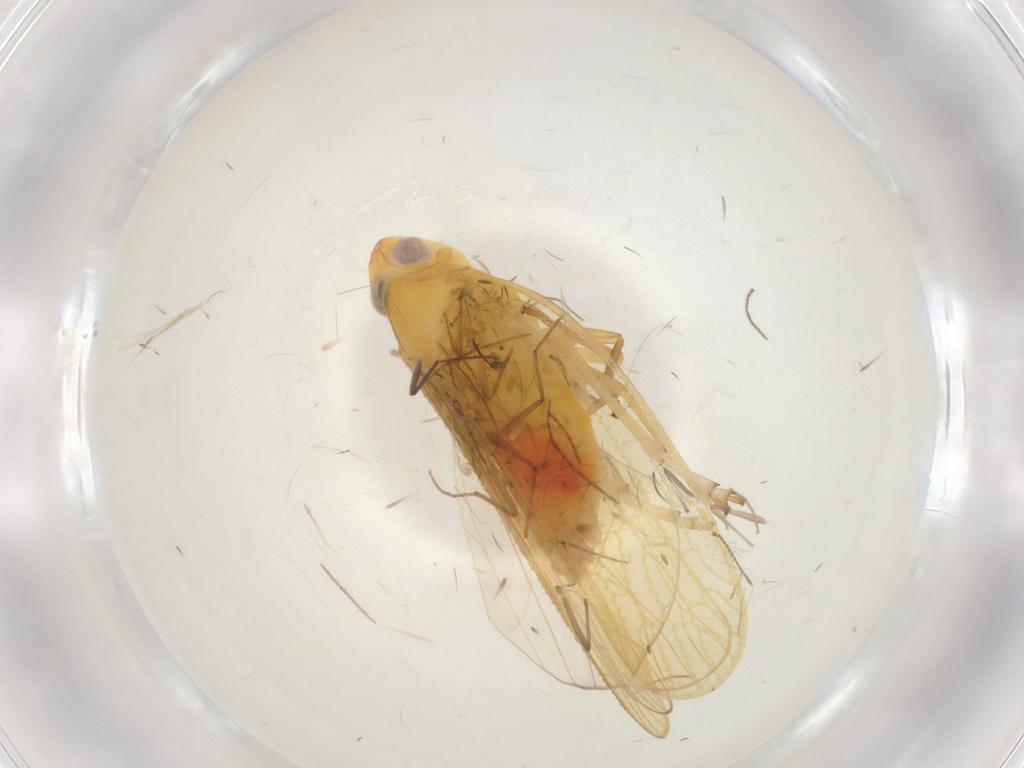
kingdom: Animalia
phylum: Arthropoda
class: Insecta
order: Hemiptera
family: Cixiidae
